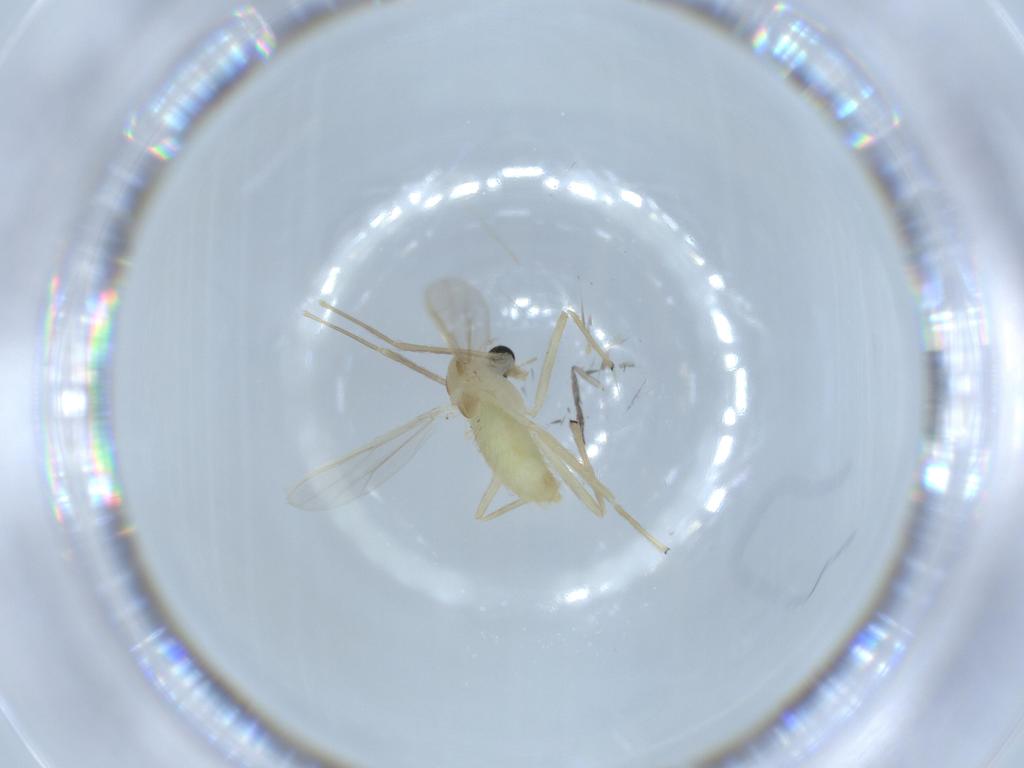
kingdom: Animalia
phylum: Arthropoda
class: Insecta
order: Diptera
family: Chironomidae
